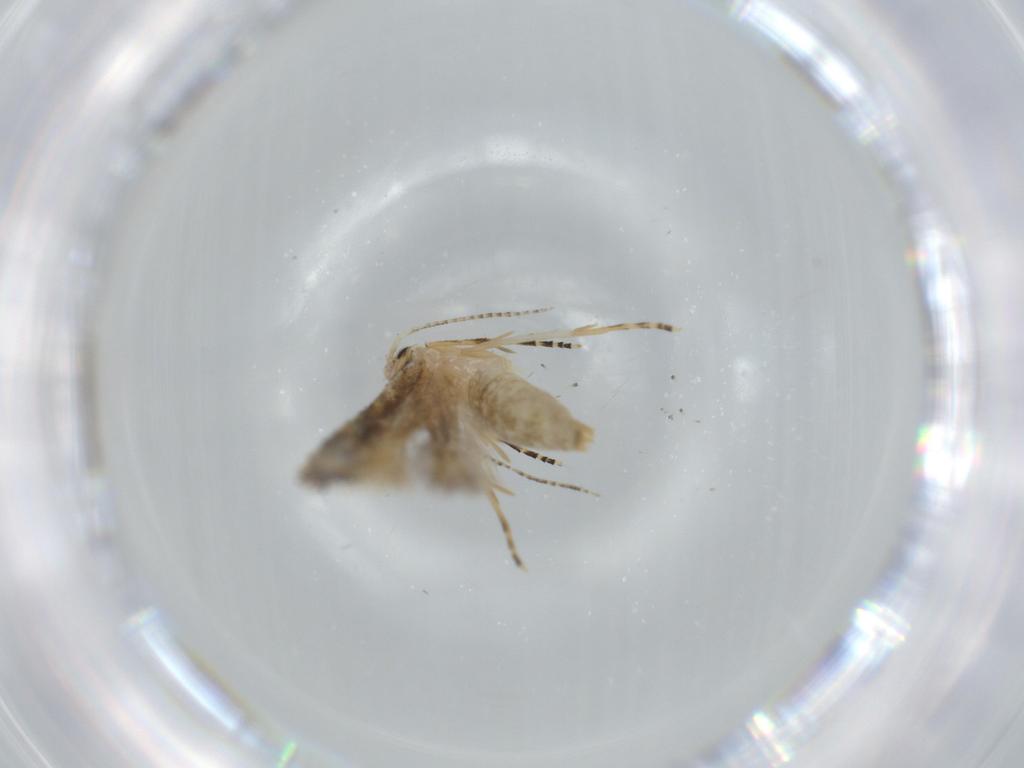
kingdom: Animalia
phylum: Arthropoda
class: Insecta
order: Lepidoptera
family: Bucculatricidae
